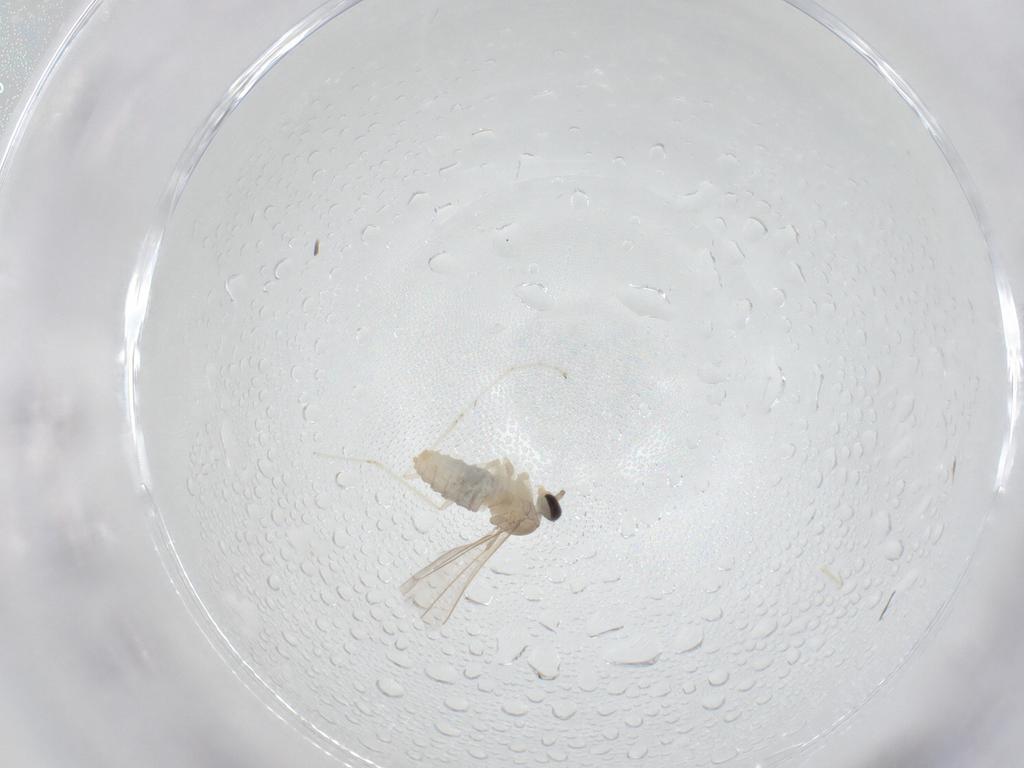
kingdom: Animalia
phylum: Arthropoda
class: Insecta
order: Diptera
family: Cecidomyiidae
